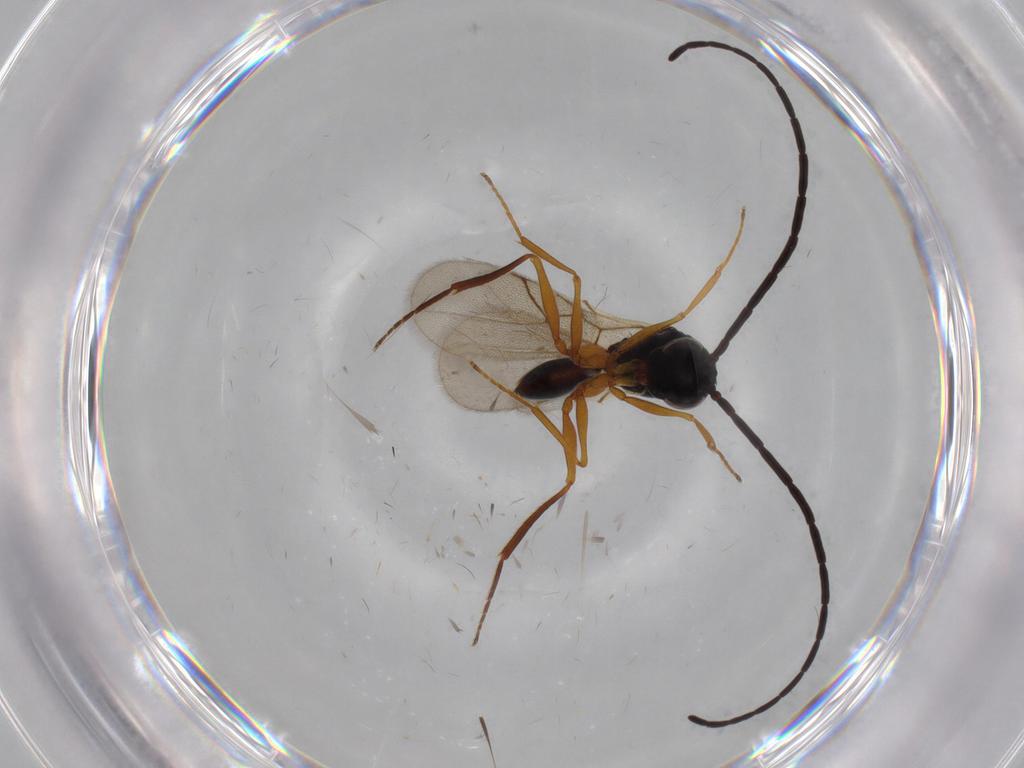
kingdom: Animalia
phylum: Arthropoda
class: Insecta
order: Hymenoptera
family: Figitidae
